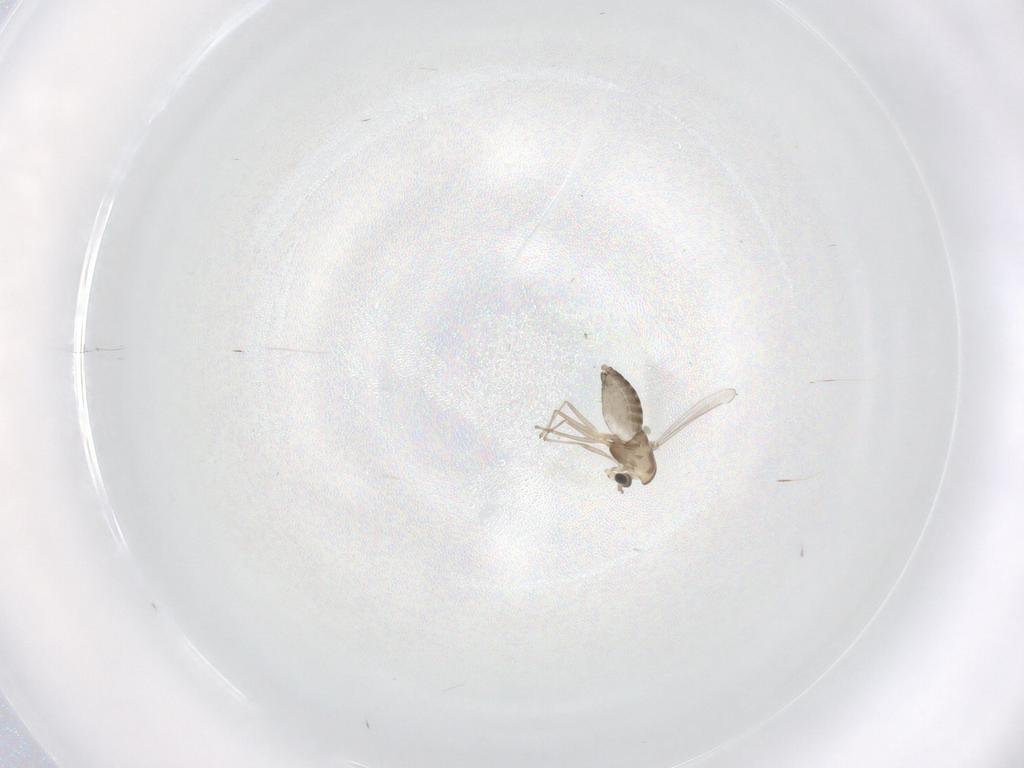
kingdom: Animalia
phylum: Arthropoda
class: Insecta
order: Diptera
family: Chironomidae
